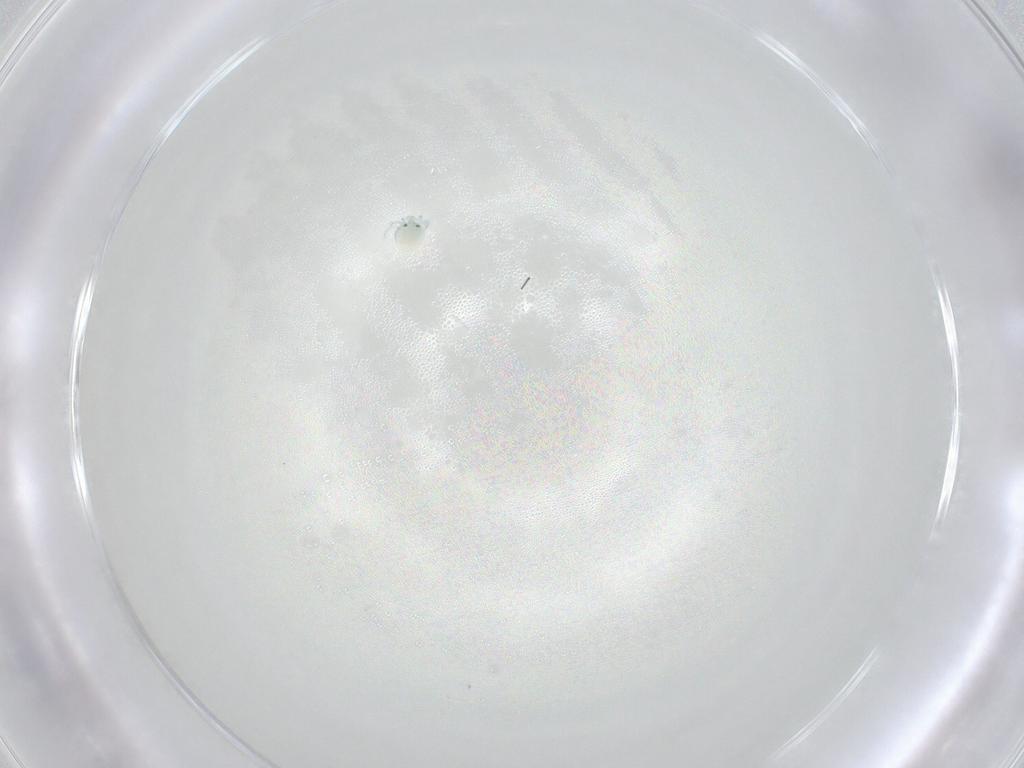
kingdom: Animalia
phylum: Arthropoda
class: Arachnida
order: Trombidiformes
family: Arrenuridae
